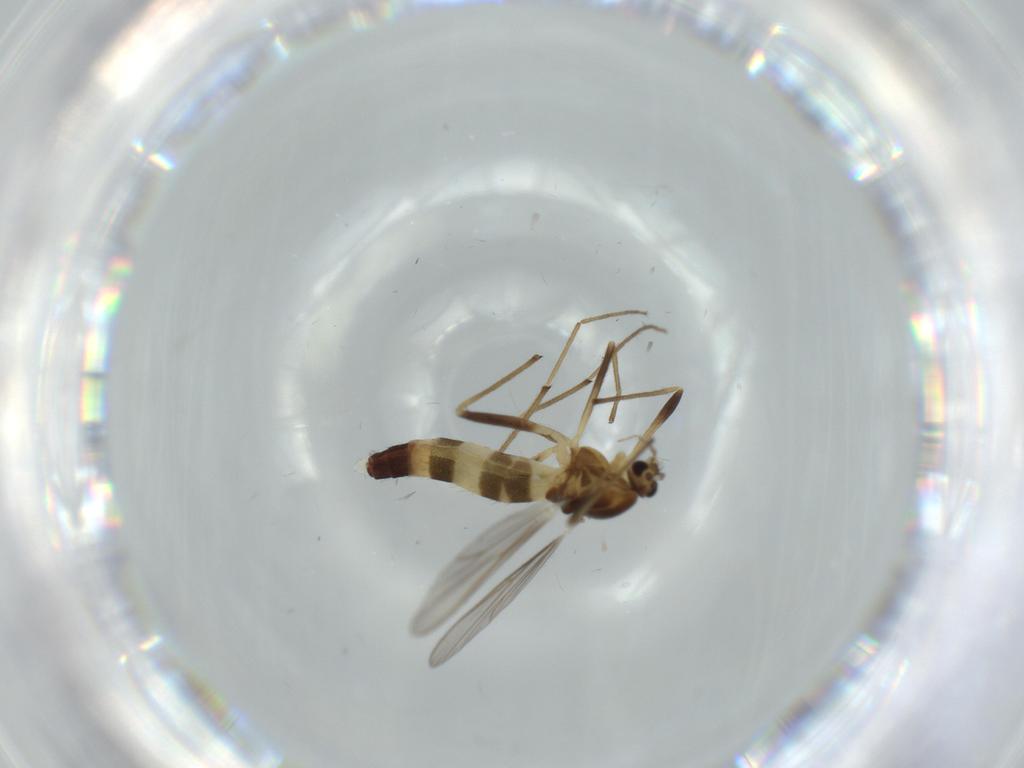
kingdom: Animalia
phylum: Arthropoda
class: Insecta
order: Diptera
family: Chironomidae
